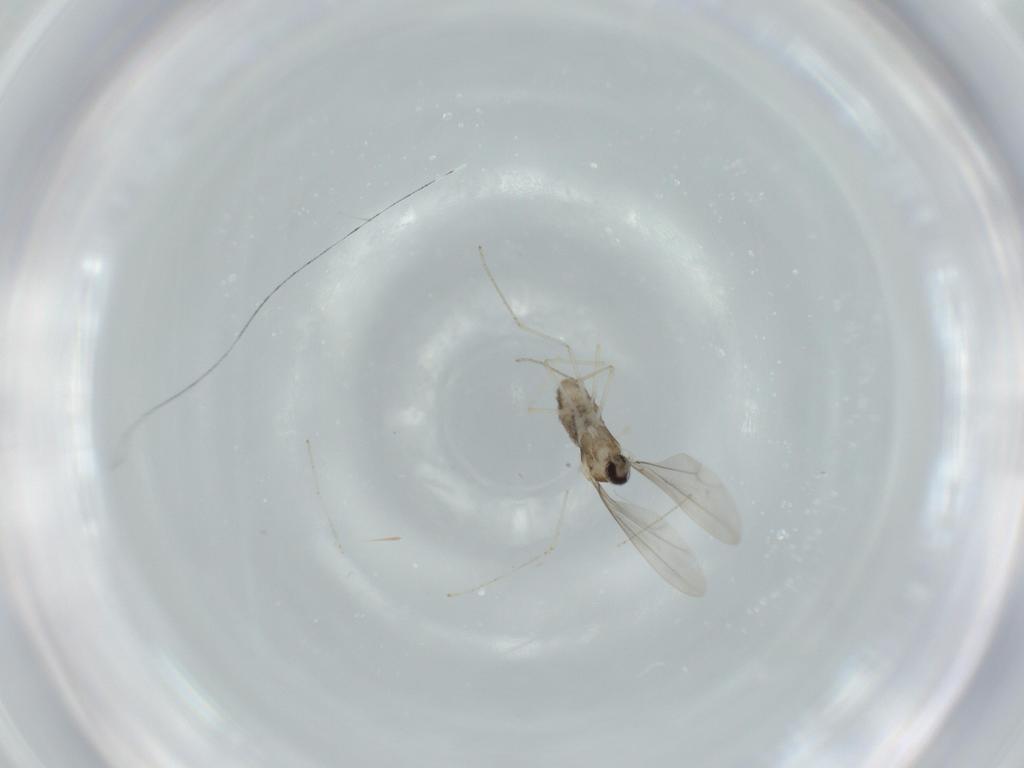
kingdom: Animalia
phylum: Arthropoda
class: Insecta
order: Diptera
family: Cecidomyiidae
